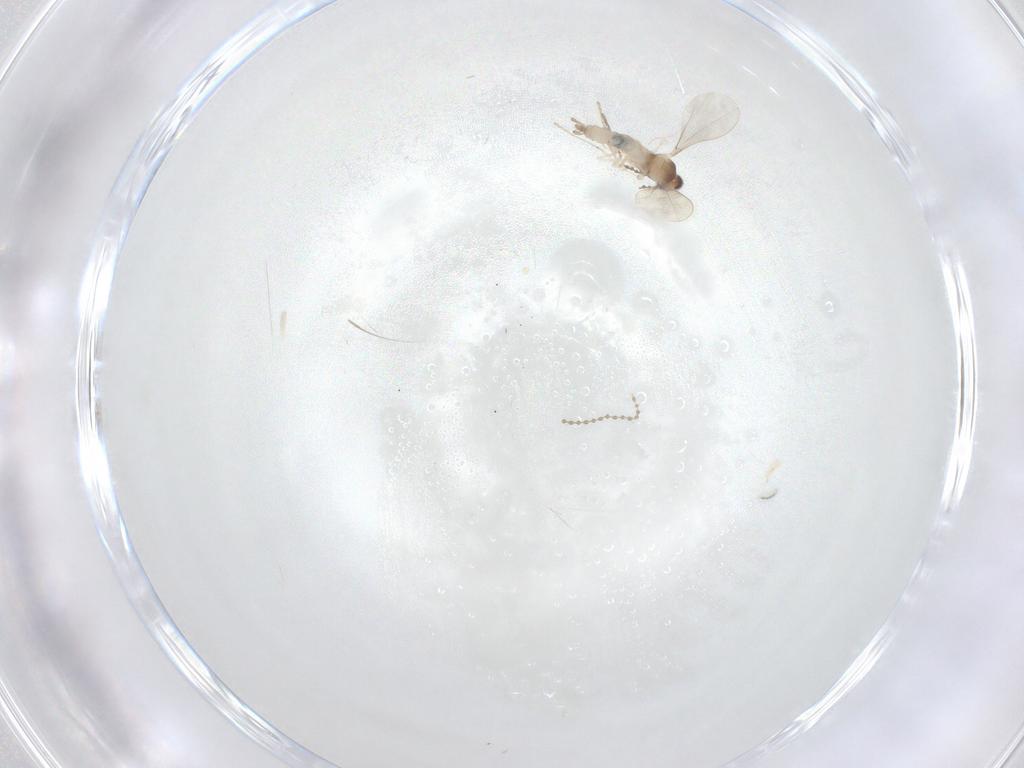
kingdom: Animalia
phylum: Arthropoda
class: Insecta
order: Diptera
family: Cecidomyiidae
